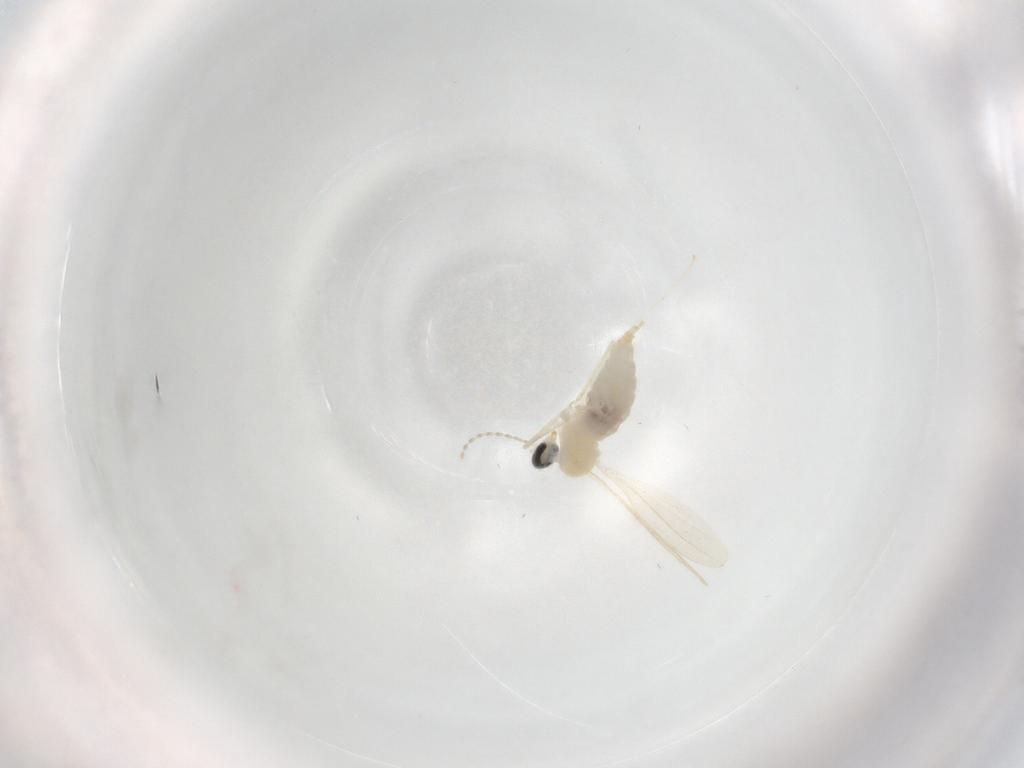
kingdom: Animalia
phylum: Arthropoda
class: Insecta
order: Diptera
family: Cecidomyiidae
